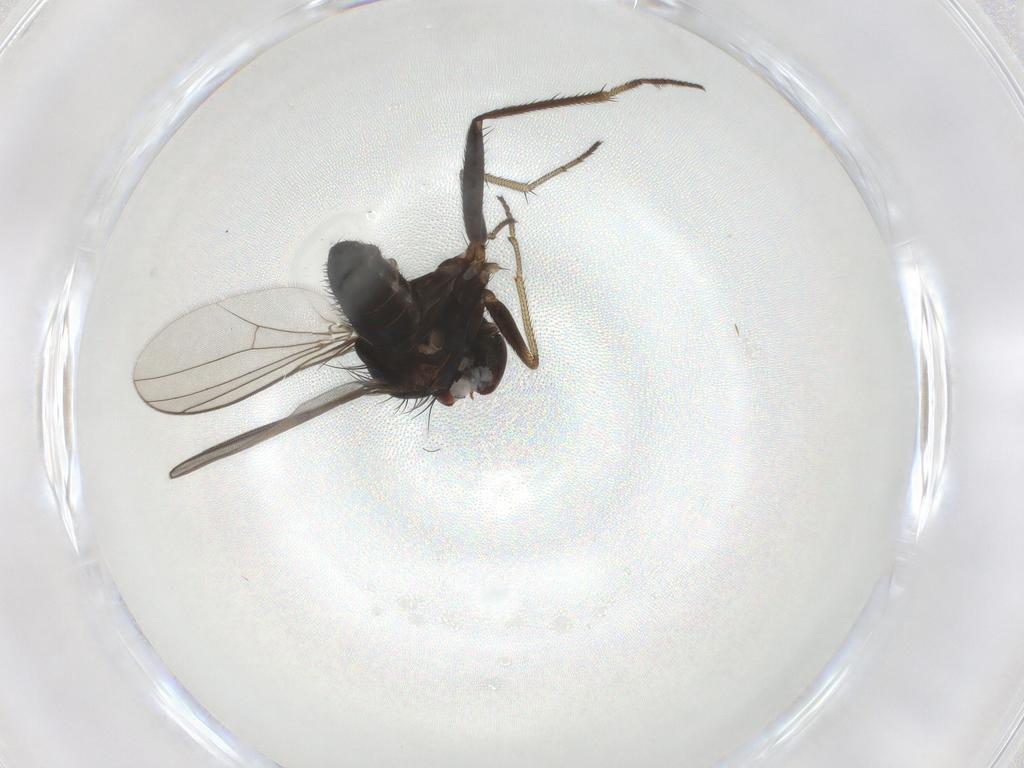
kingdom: Animalia
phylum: Arthropoda
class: Insecta
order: Diptera
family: Dolichopodidae
